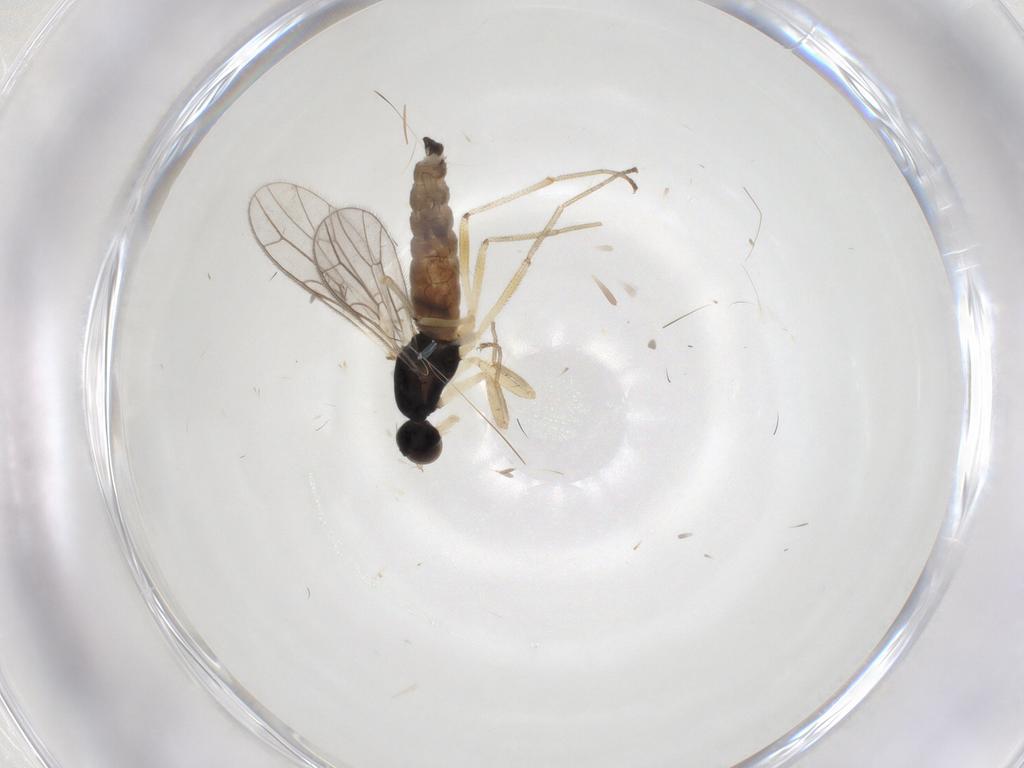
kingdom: Animalia
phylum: Arthropoda
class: Insecta
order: Diptera
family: Empididae
